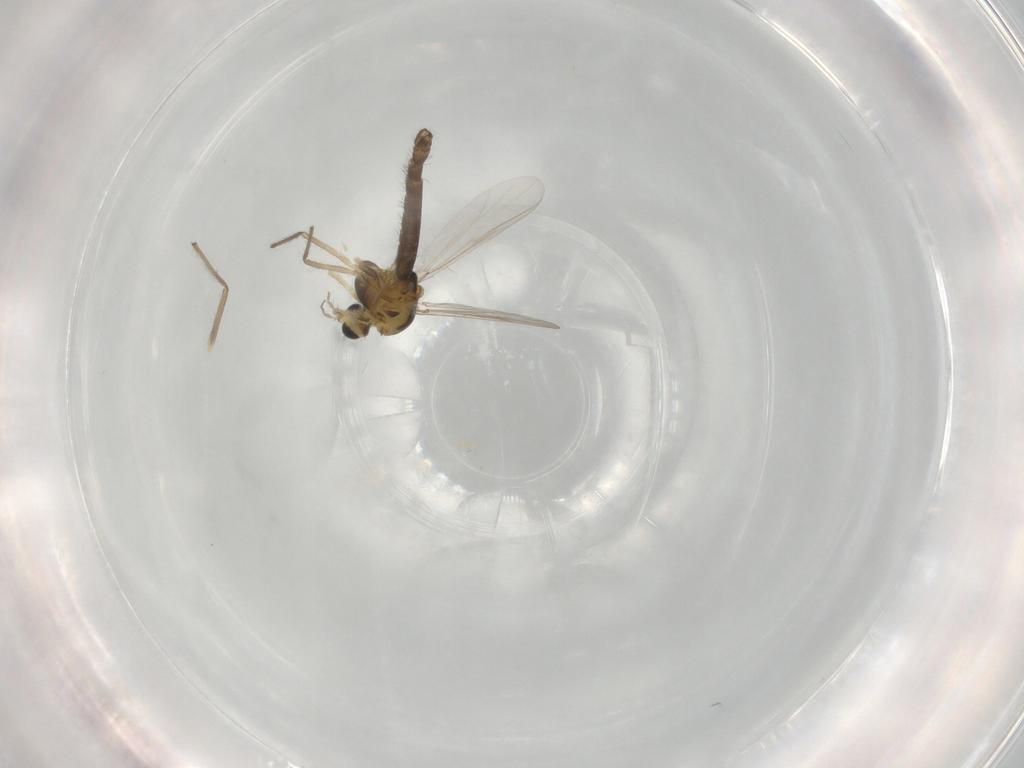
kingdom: Animalia
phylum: Arthropoda
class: Insecta
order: Diptera
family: Chironomidae
